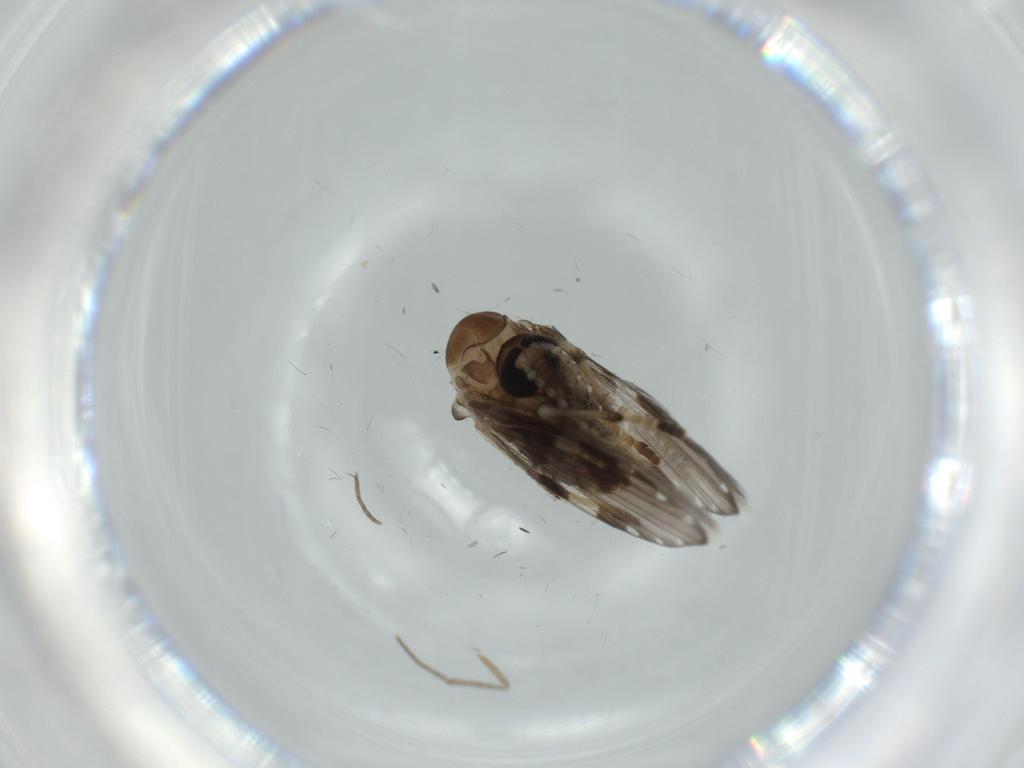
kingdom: Animalia
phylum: Arthropoda
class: Insecta
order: Diptera
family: Psychodidae
